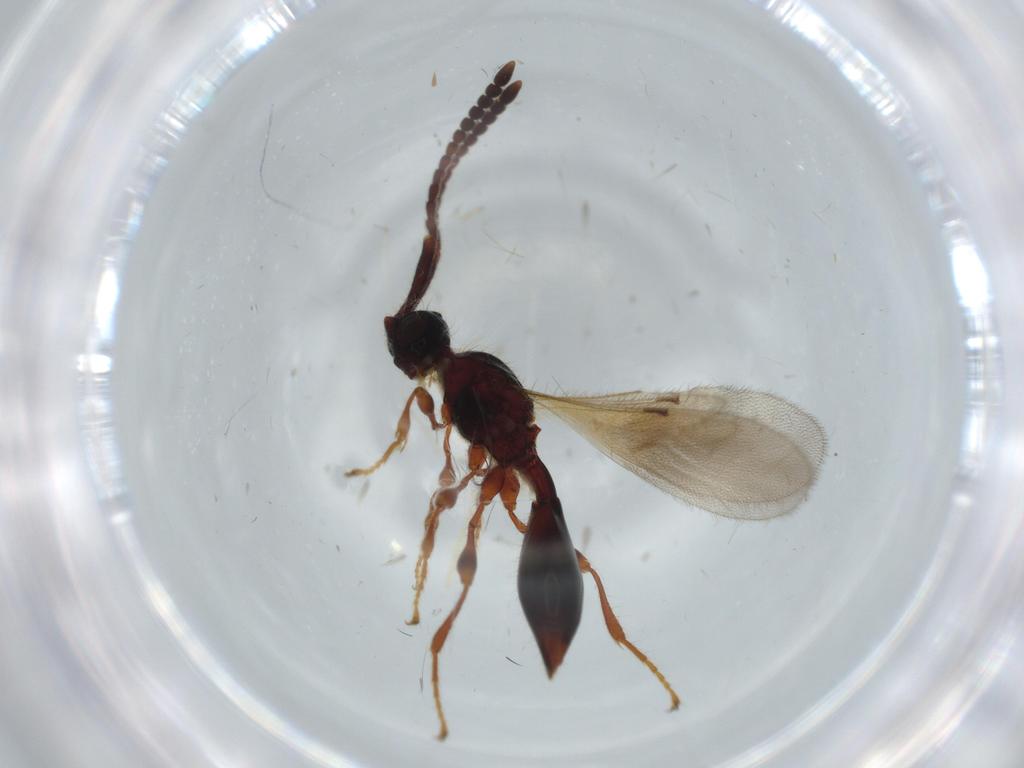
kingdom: Animalia
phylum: Arthropoda
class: Insecta
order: Hymenoptera
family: Diapriidae
